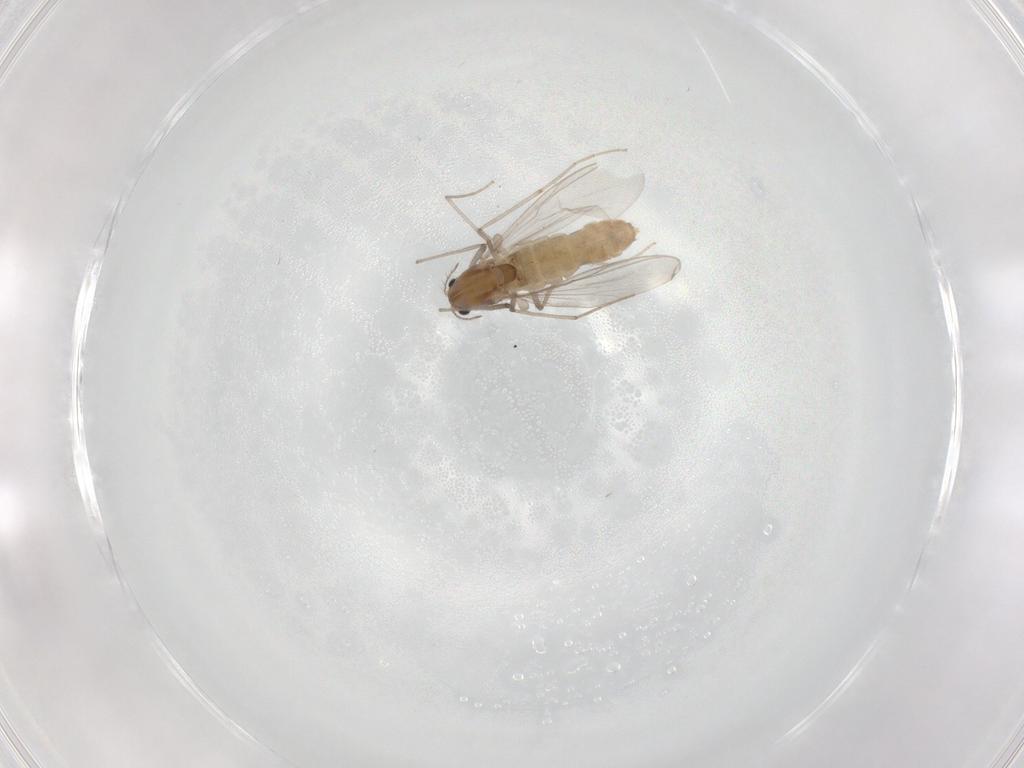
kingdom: Animalia
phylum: Arthropoda
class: Insecta
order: Diptera
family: Chironomidae
